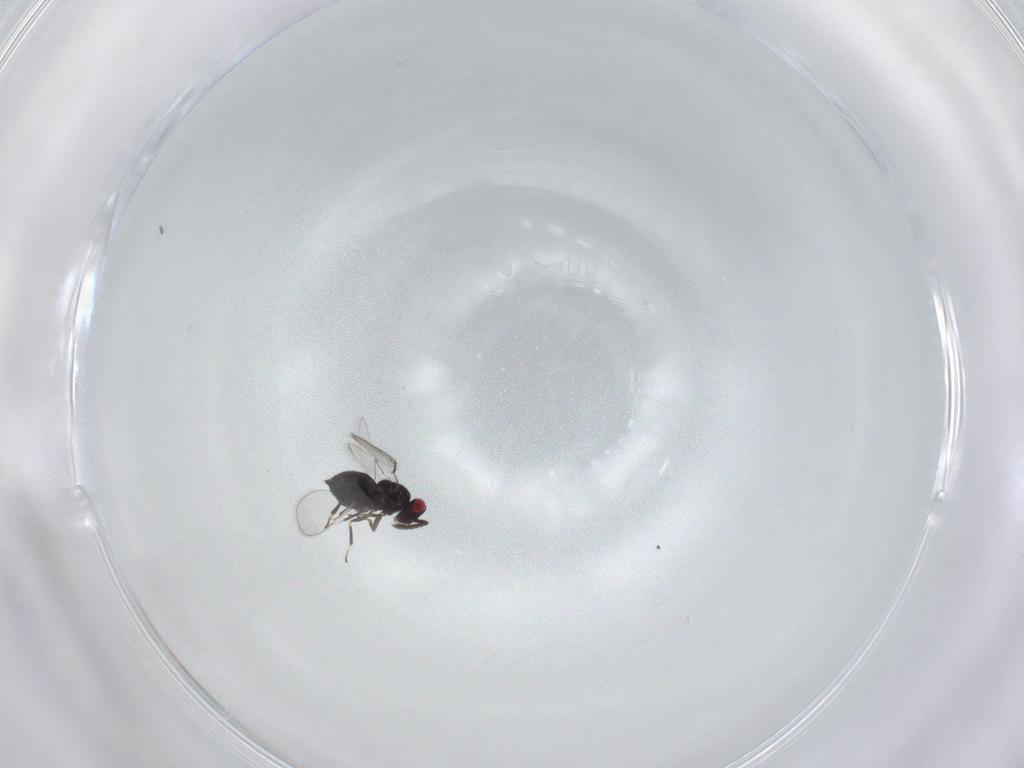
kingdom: Animalia
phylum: Arthropoda
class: Insecta
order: Hymenoptera
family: Eulophidae
